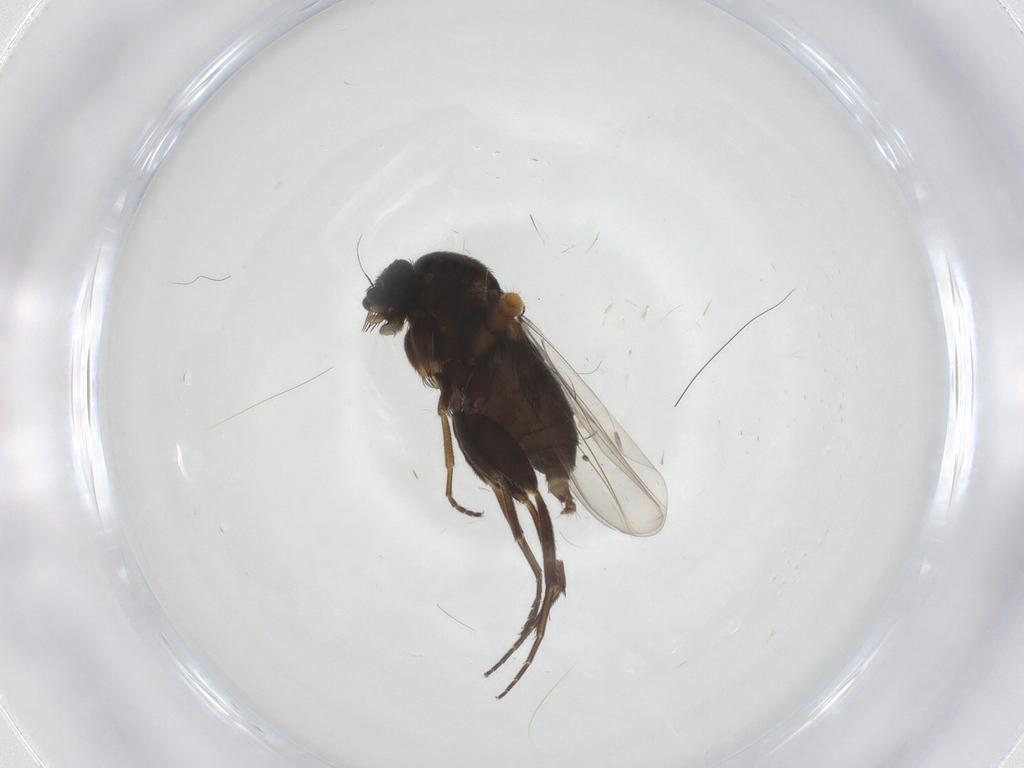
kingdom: Animalia
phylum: Arthropoda
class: Insecta
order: Diptera
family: Phoridae
